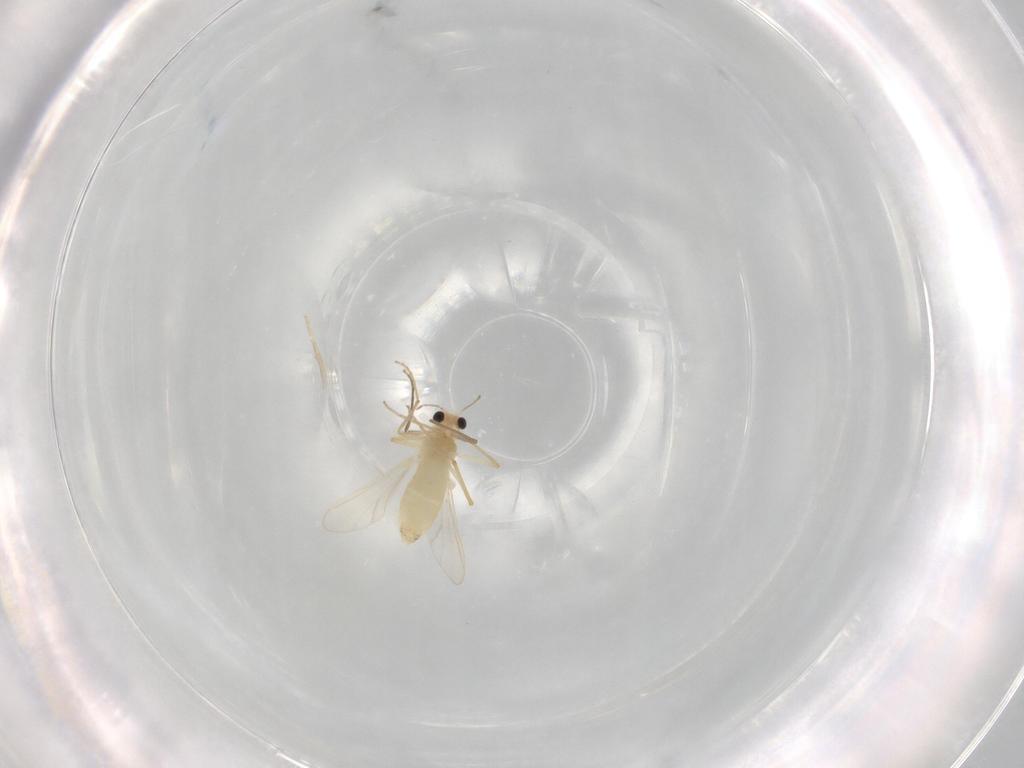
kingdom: Animalia
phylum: Arthropoda
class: Insecta
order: Diptera
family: Chironomidae
